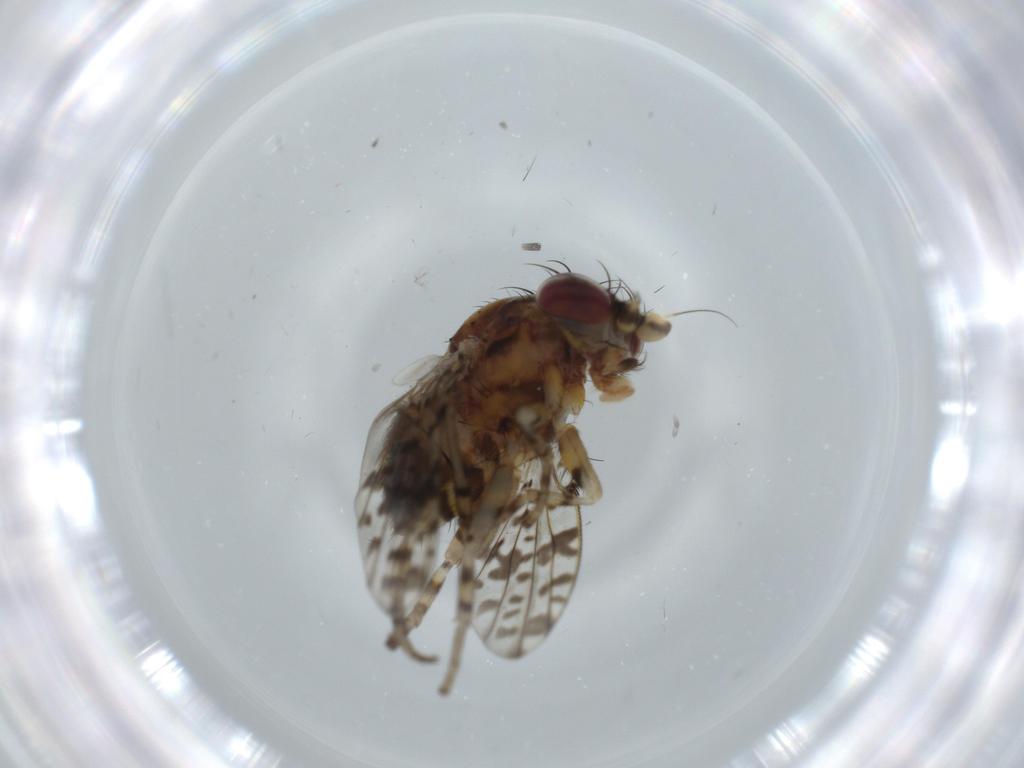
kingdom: Animalia
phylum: Arthropoda
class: Insecta
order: Diptera
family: Odiniidae
